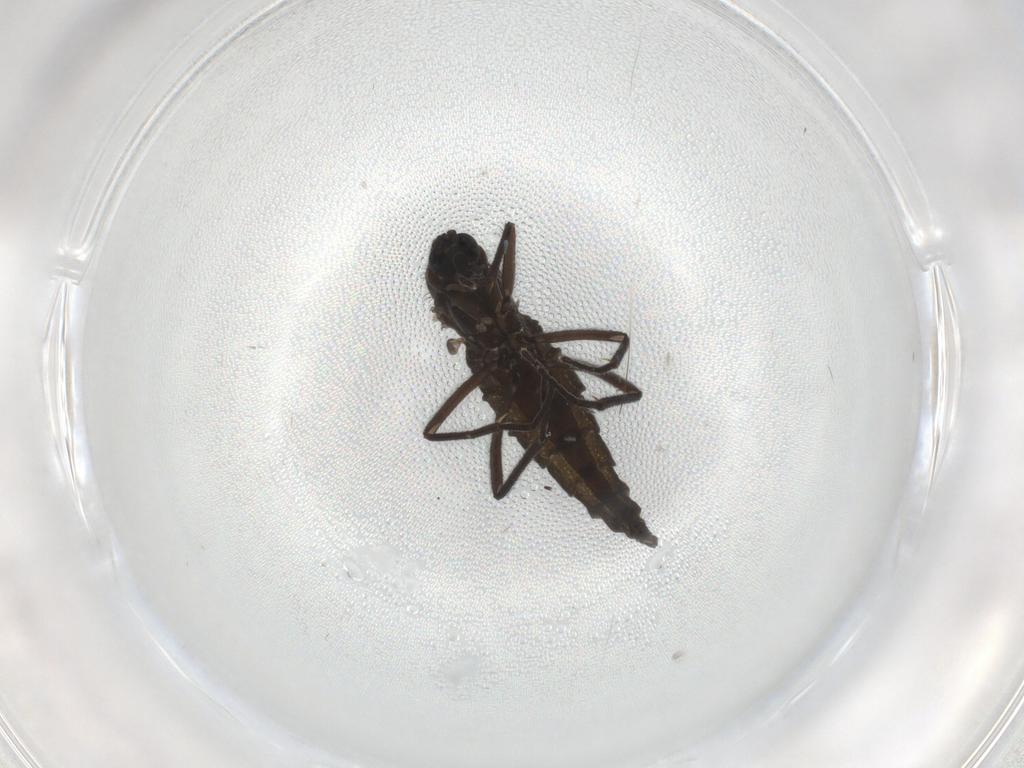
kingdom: Animalia
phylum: Arthropoda
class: Insecta
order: Diptera
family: Sciaridae
